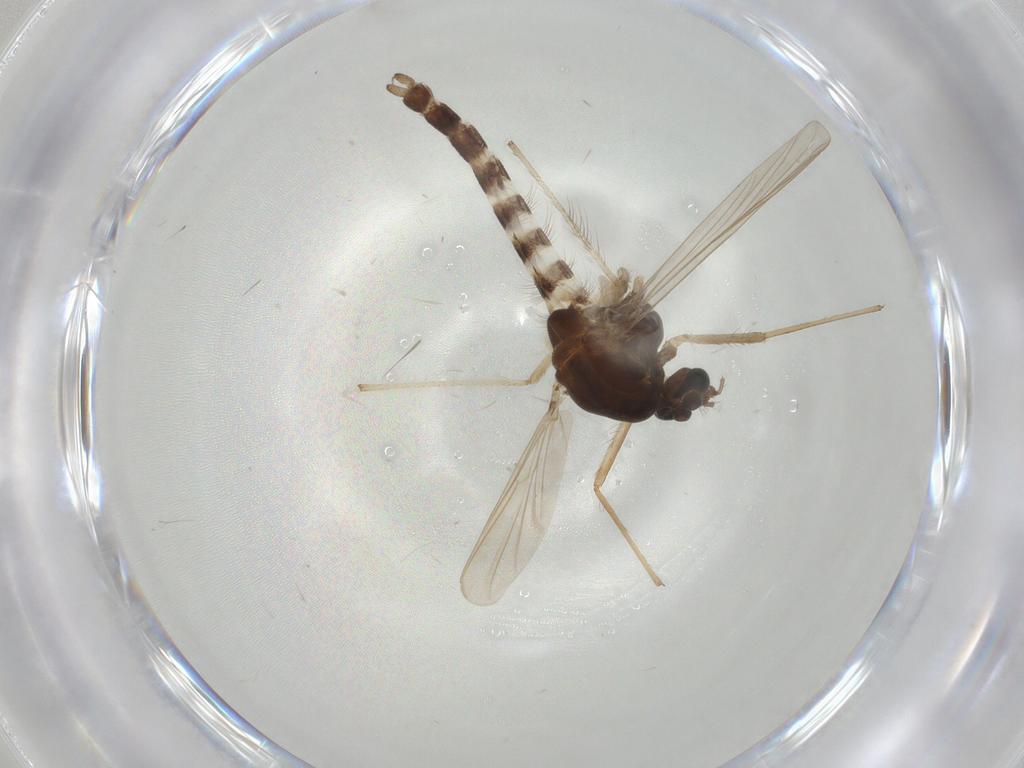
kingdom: Animalia
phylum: Arthropoda
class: Insecta
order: Diptera
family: Chironomidae
